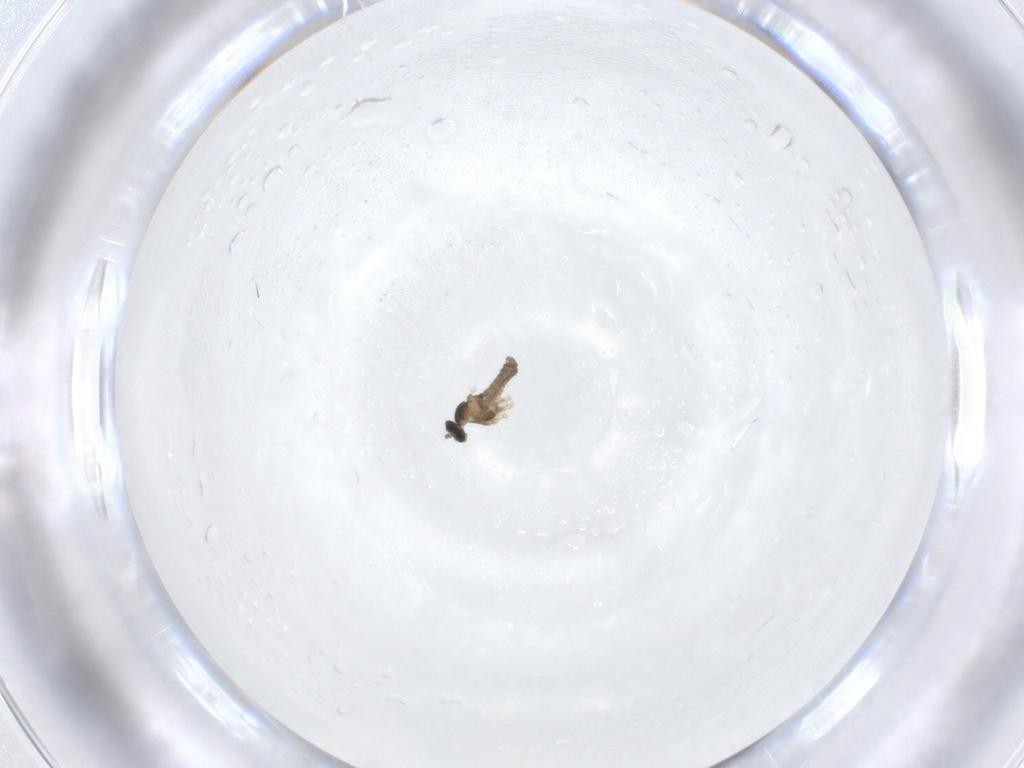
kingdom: Animalia
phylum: Arthropoda
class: Insecta
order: Diptera
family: Cecidomyiidae
